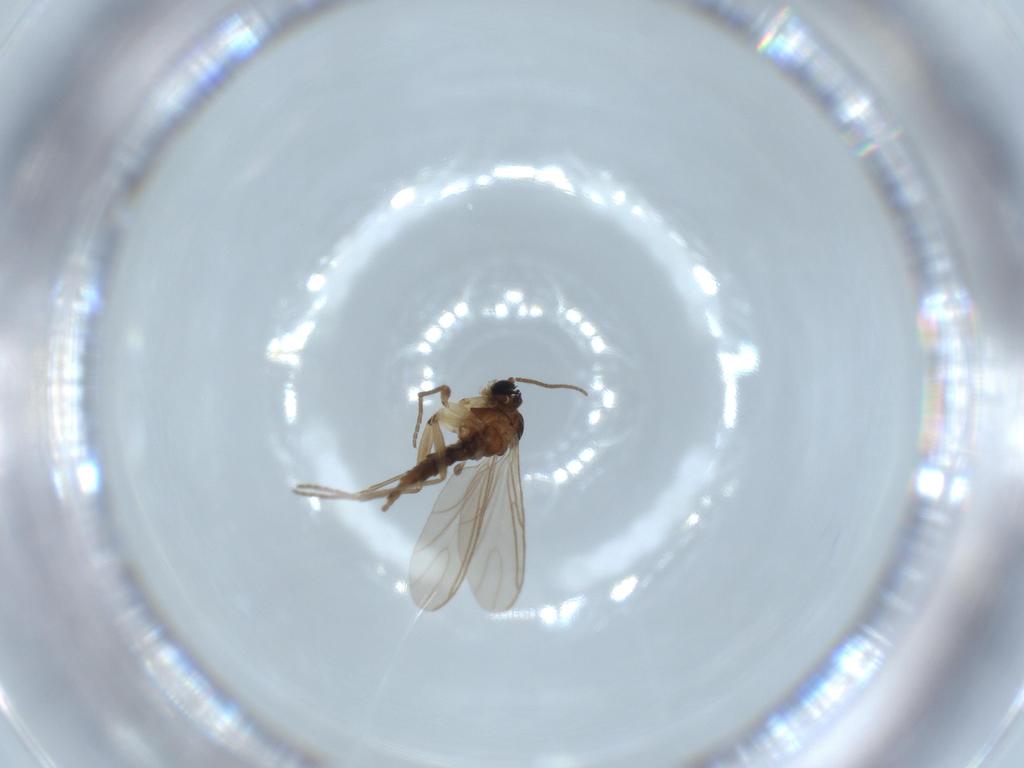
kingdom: Animalia
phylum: Arthropoda
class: Insecta
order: Diptera
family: Sciaridae
